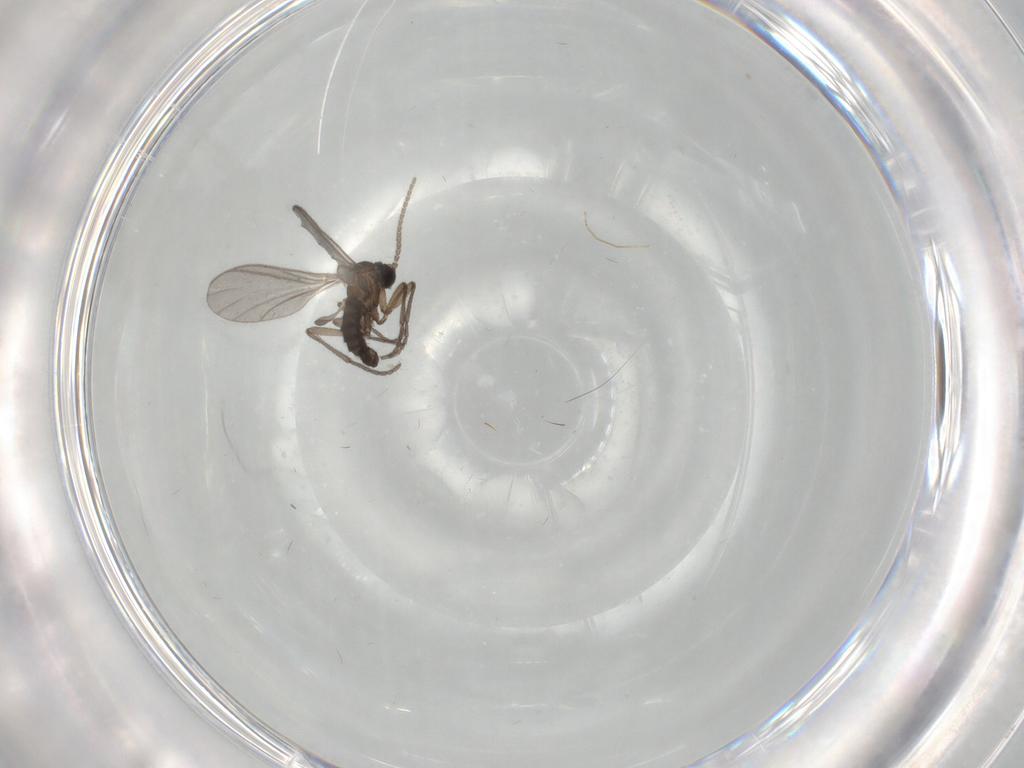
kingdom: Animalia
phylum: Arthropoda
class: Insecta
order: Diptera
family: Sciaridae
